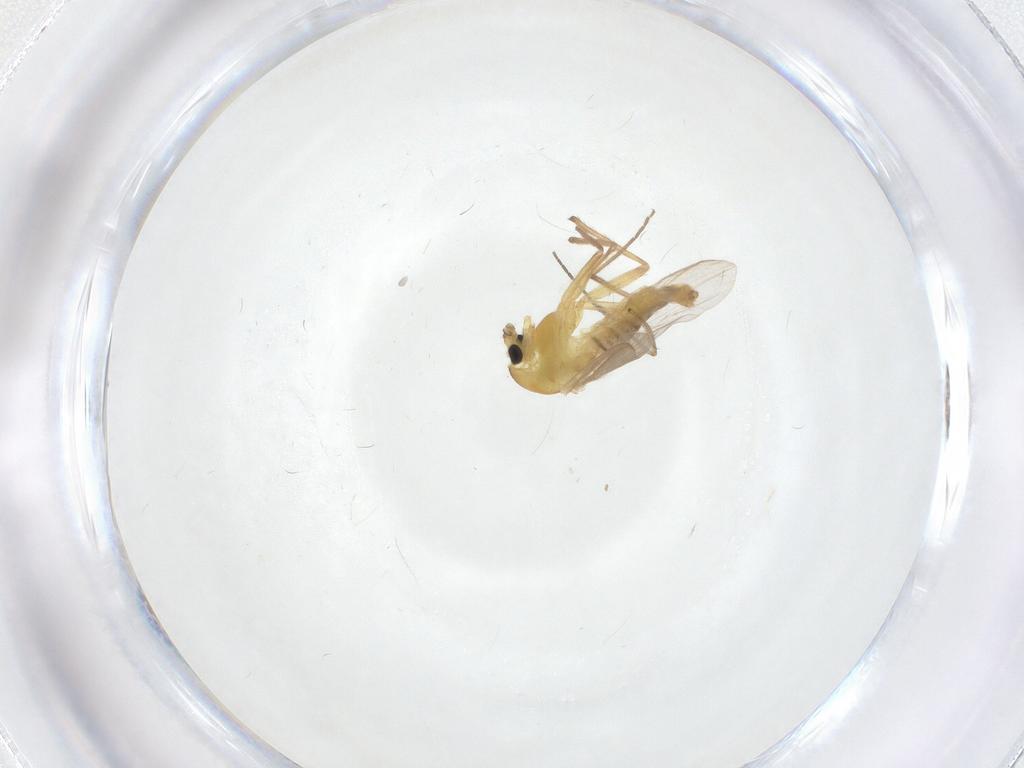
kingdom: Animalia
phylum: Arthropoda
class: Insecta
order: Diptera
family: Chironomidae
